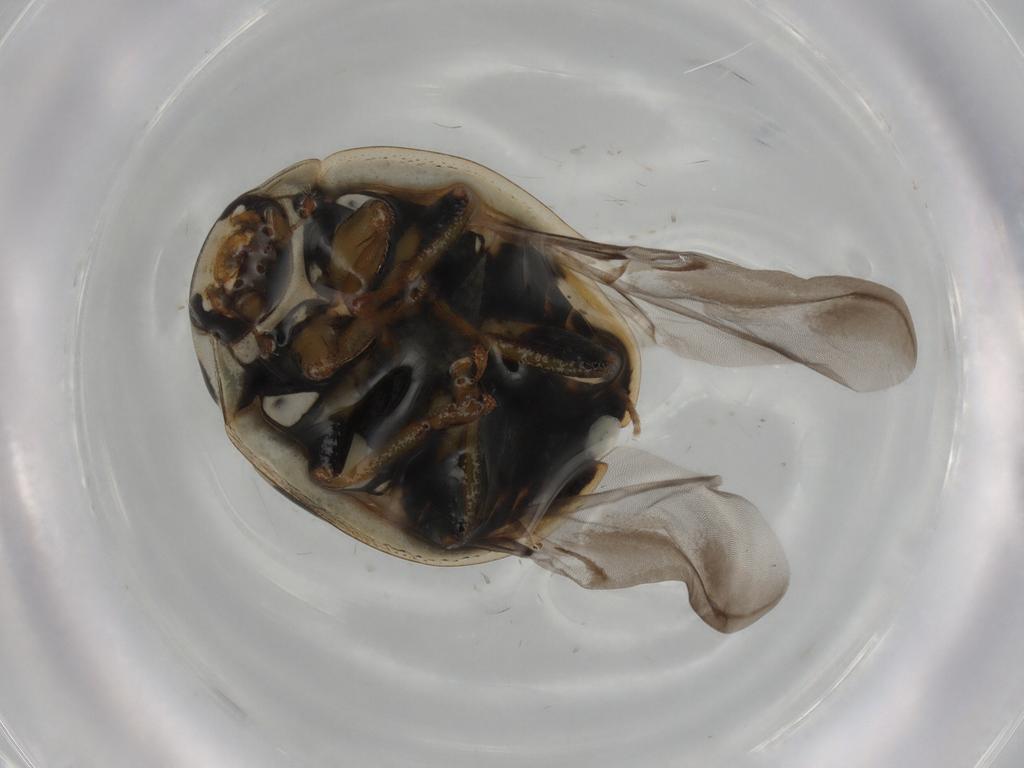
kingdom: Animalia
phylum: Arthropoda
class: Insecta
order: Coleoptera
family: Coccinellidae
